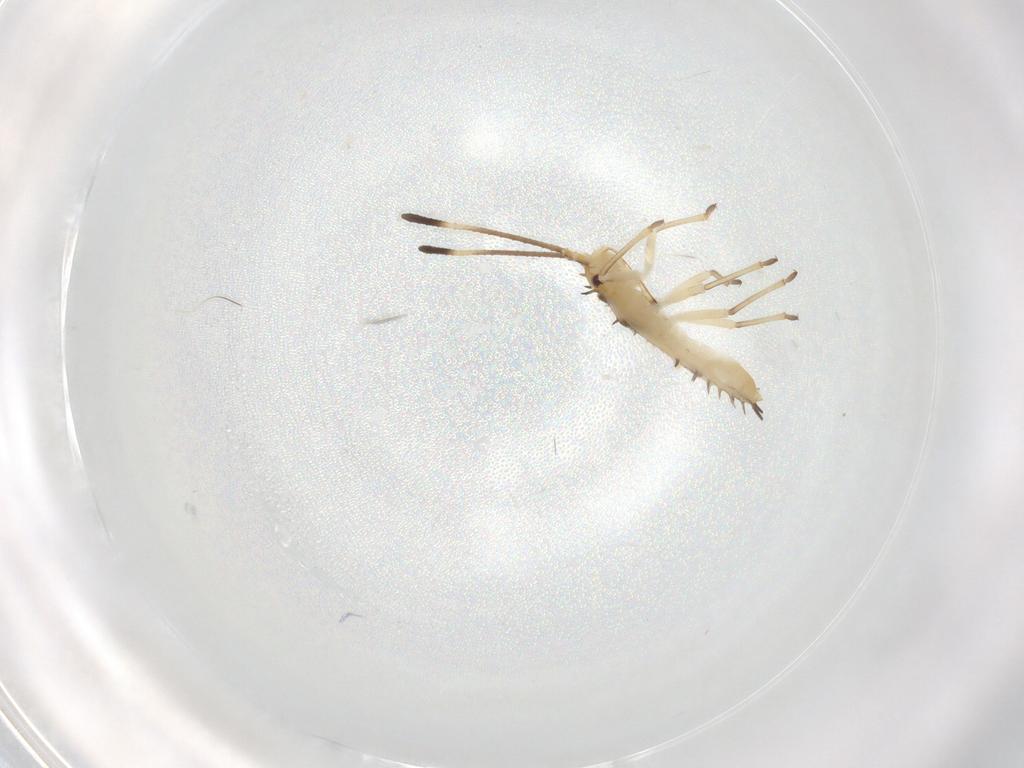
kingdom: Animalia
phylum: Arthropoda
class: Insecta
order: Hemiptera
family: Tingidae
